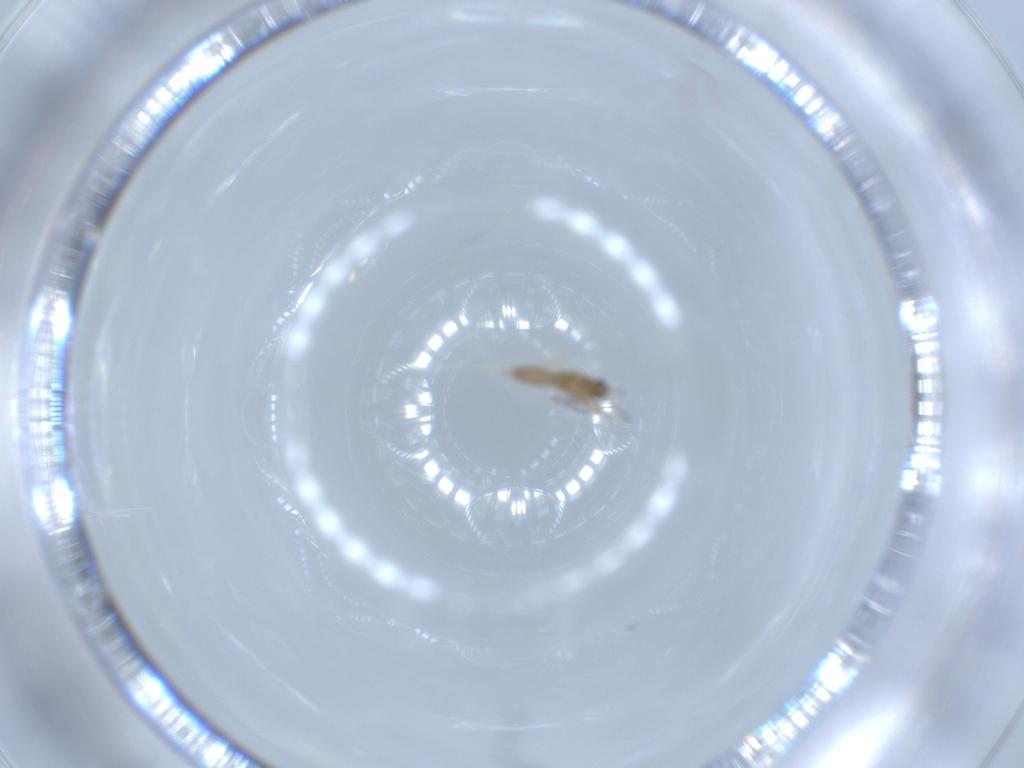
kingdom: Animalia
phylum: Arthropoda
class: Insecta
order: Diptera
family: Cecidomyiidae
